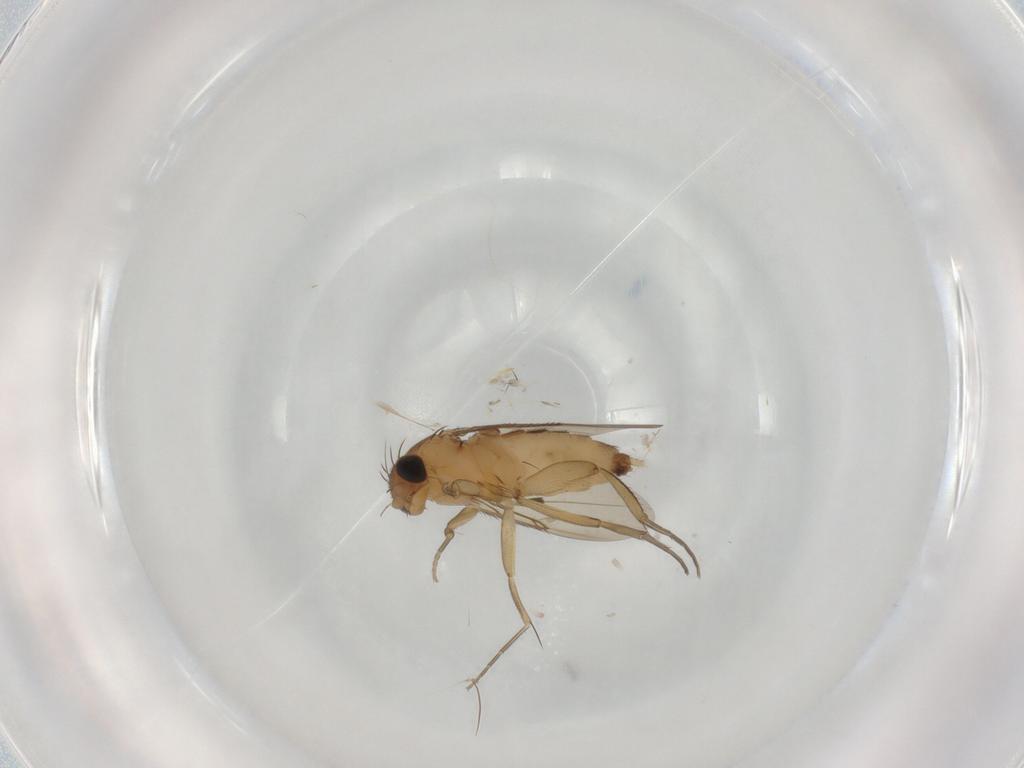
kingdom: Animalia
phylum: Arthropoda
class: Insecta
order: Diptera
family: Phoridae
